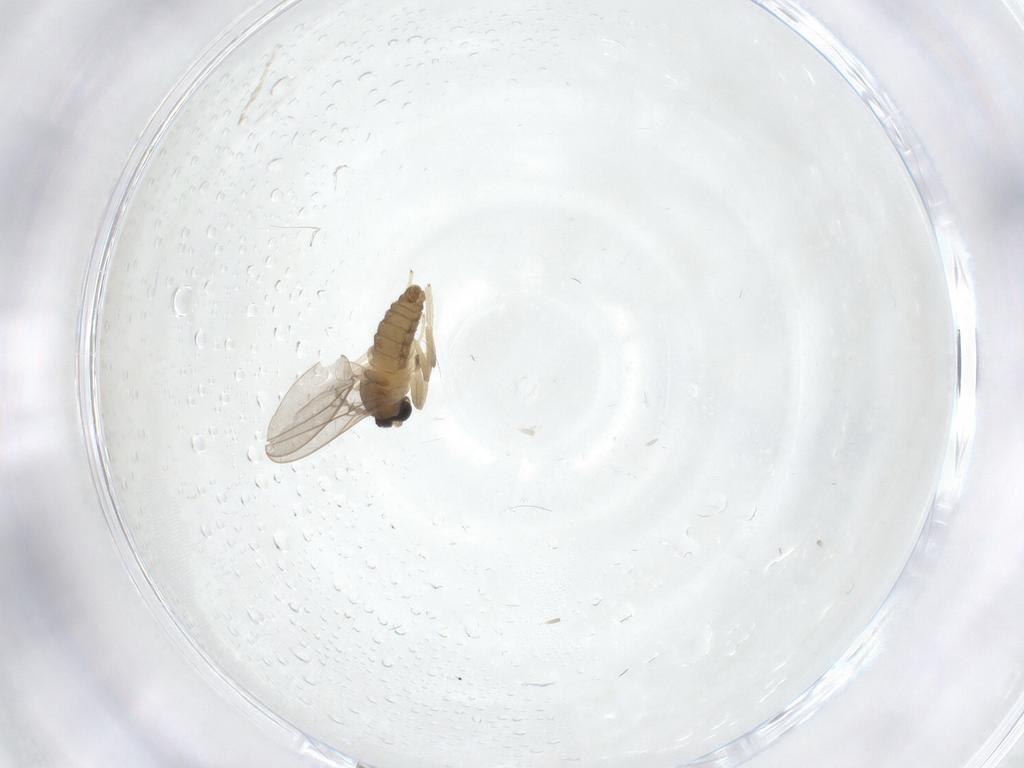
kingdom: Animalia
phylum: Arthropoda
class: Insecta
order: Diptera
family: Cecidomyiidae
